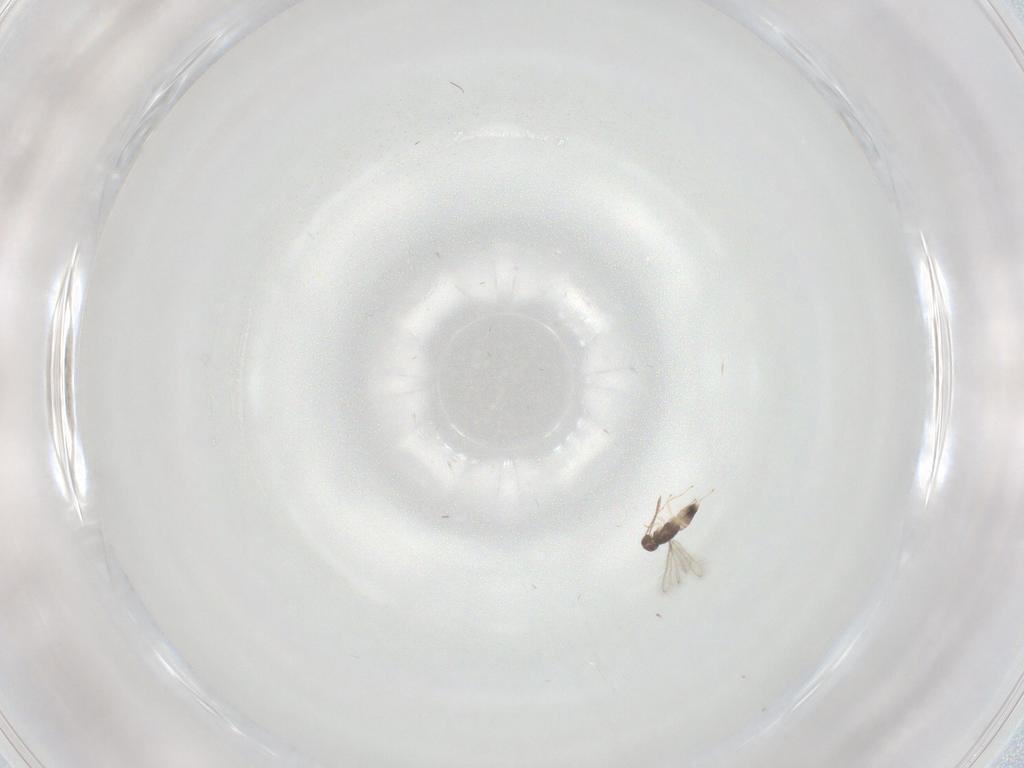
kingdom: Animalia
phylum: Arthropoda
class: Insecta
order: Hymenoptera
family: Mymaridae
